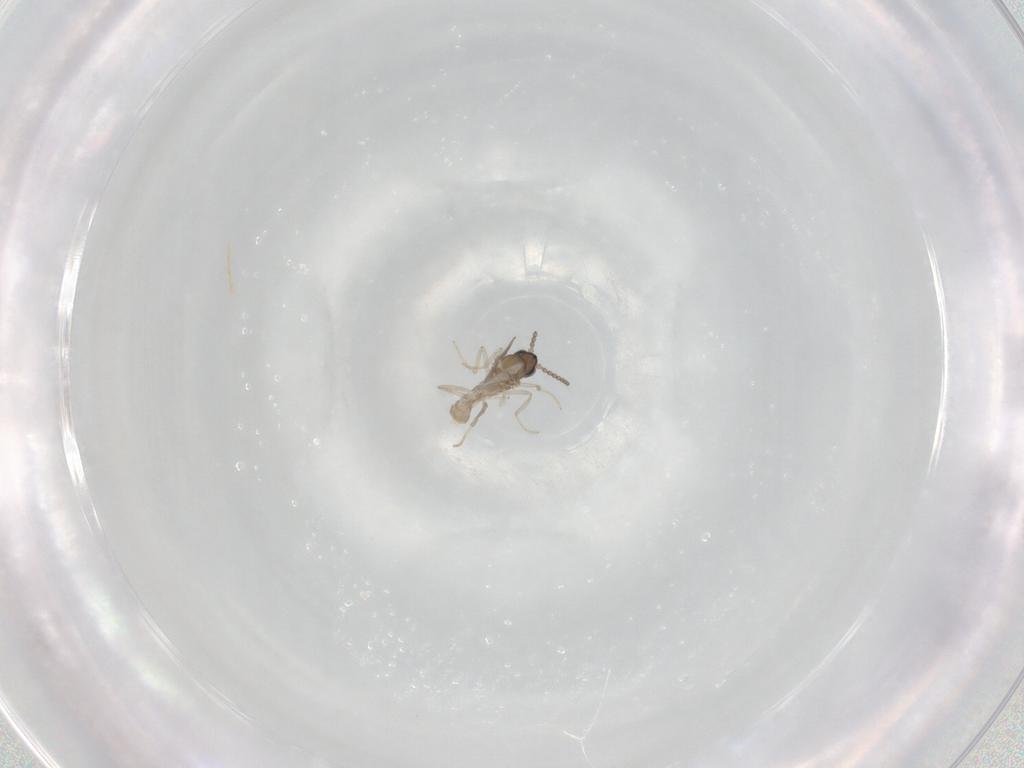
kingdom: Animalia
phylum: Arthropoda
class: Insecta
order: Diptera
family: Cecidomyiidae
